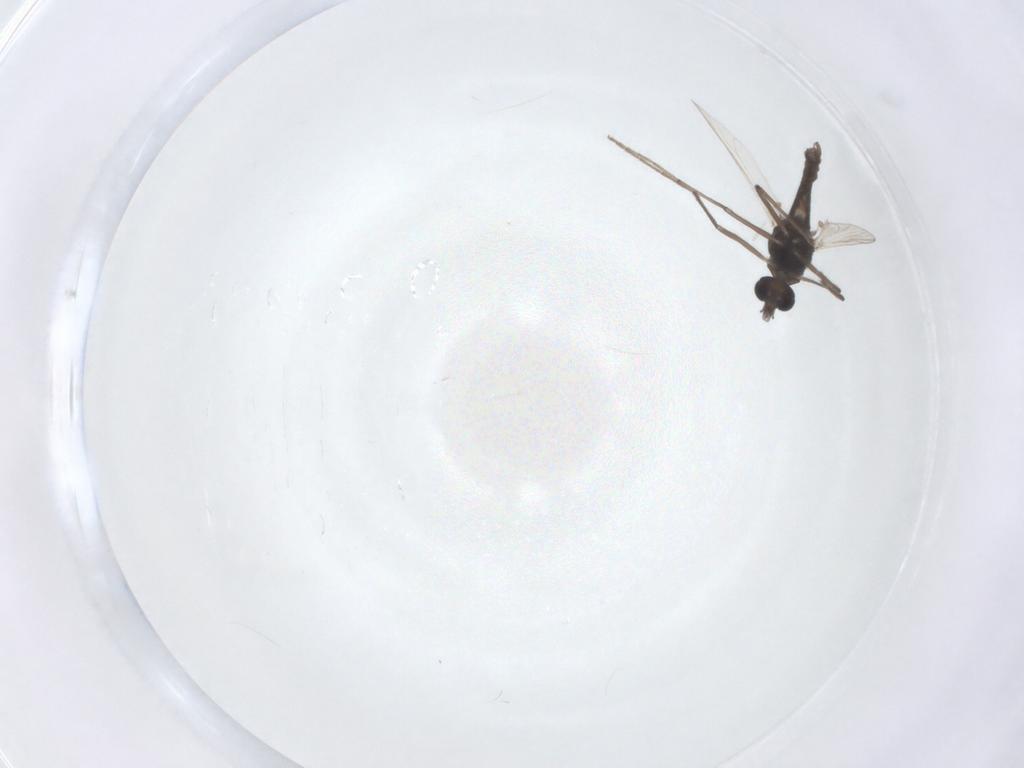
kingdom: Animalia
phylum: Arthropoda
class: Insecta
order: Diptera
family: Chironomidae
